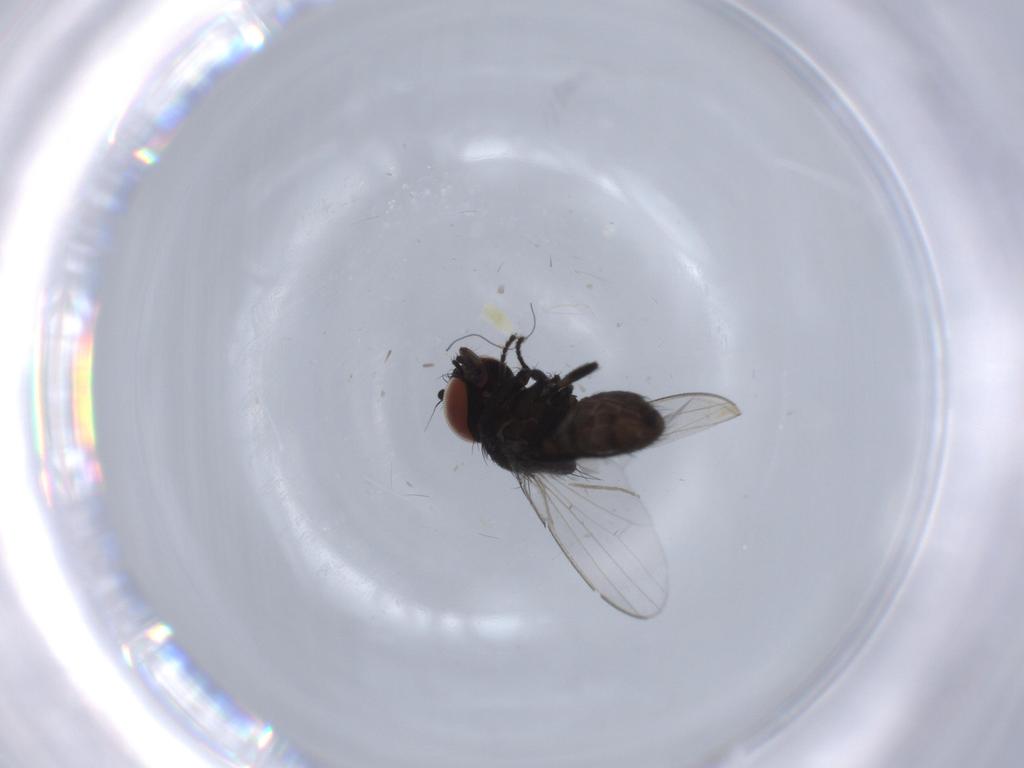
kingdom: Animalia
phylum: Arthropoda
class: Insecta
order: Diptera
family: Milichiidae
